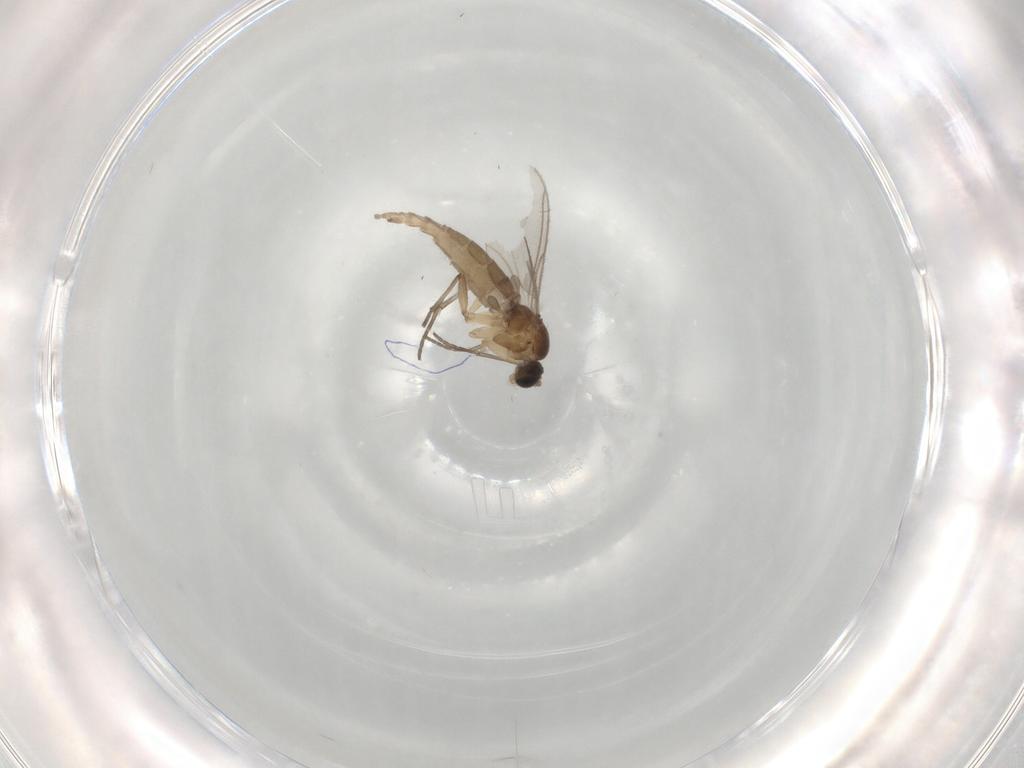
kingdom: Animalia
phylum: Arthropoda
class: Insecta
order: Diptera
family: Sciaridae
